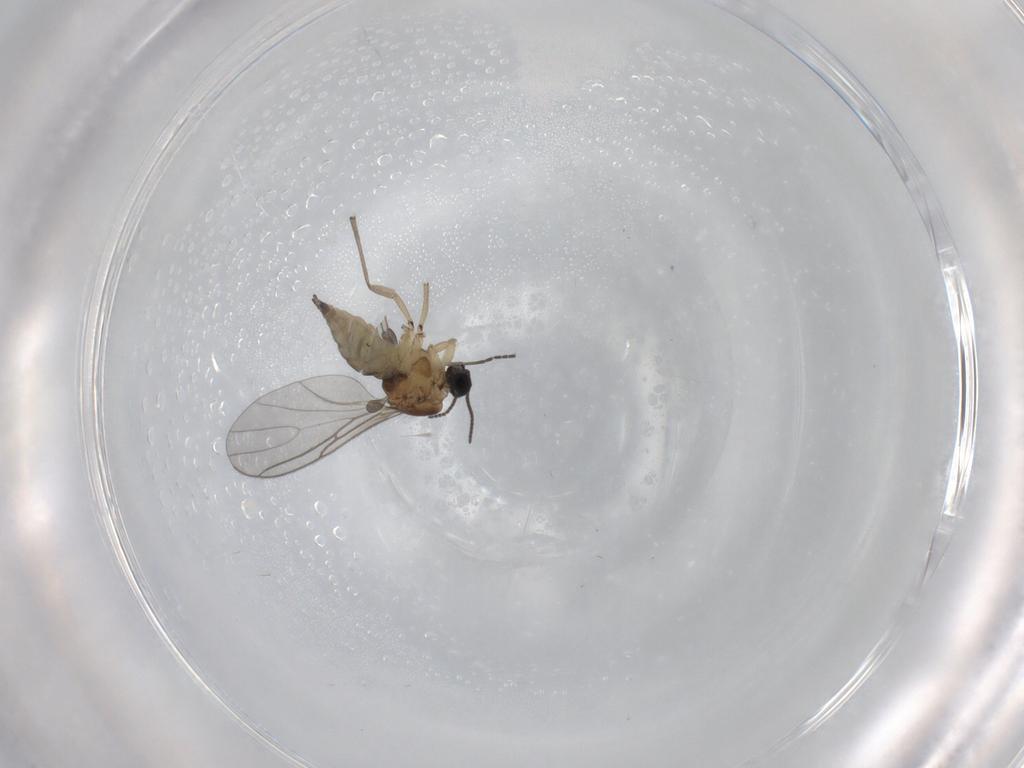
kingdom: Animalia
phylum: Arthropoda
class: Insecta
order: Diptera
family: Sciaridae
